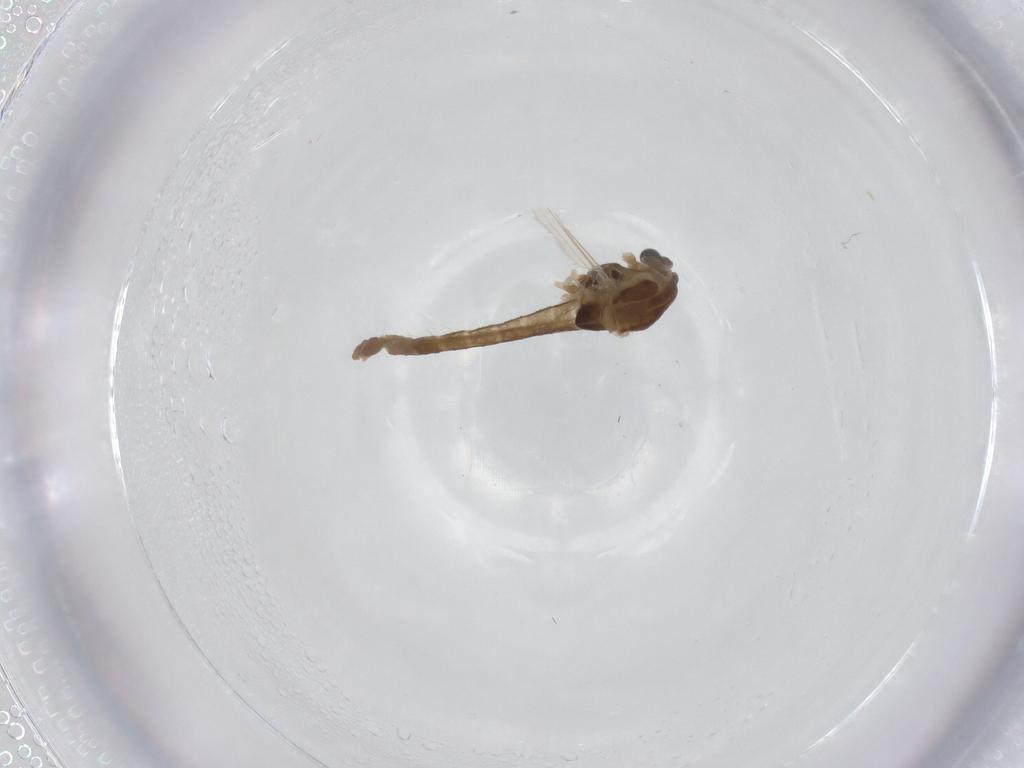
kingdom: Animalia
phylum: Arthropoda
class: Insecta
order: Diptera
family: Chironomidae
